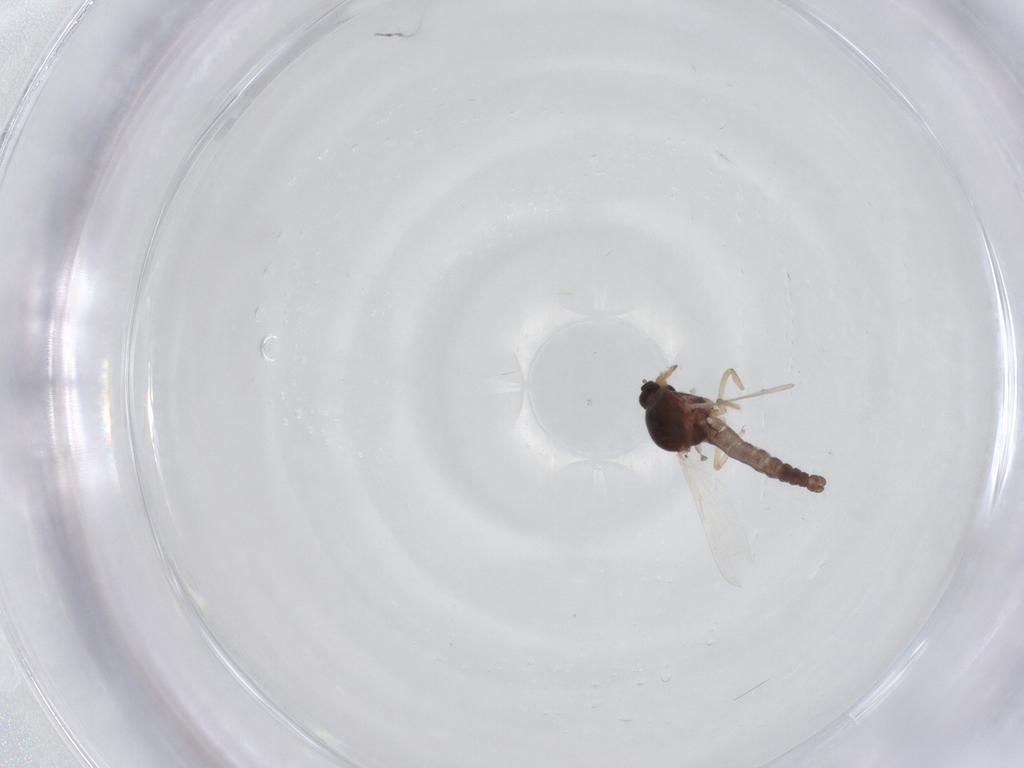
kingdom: Animalia
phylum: Arthropoda
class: Insecta
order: Diptera
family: Ceratopogonidae
